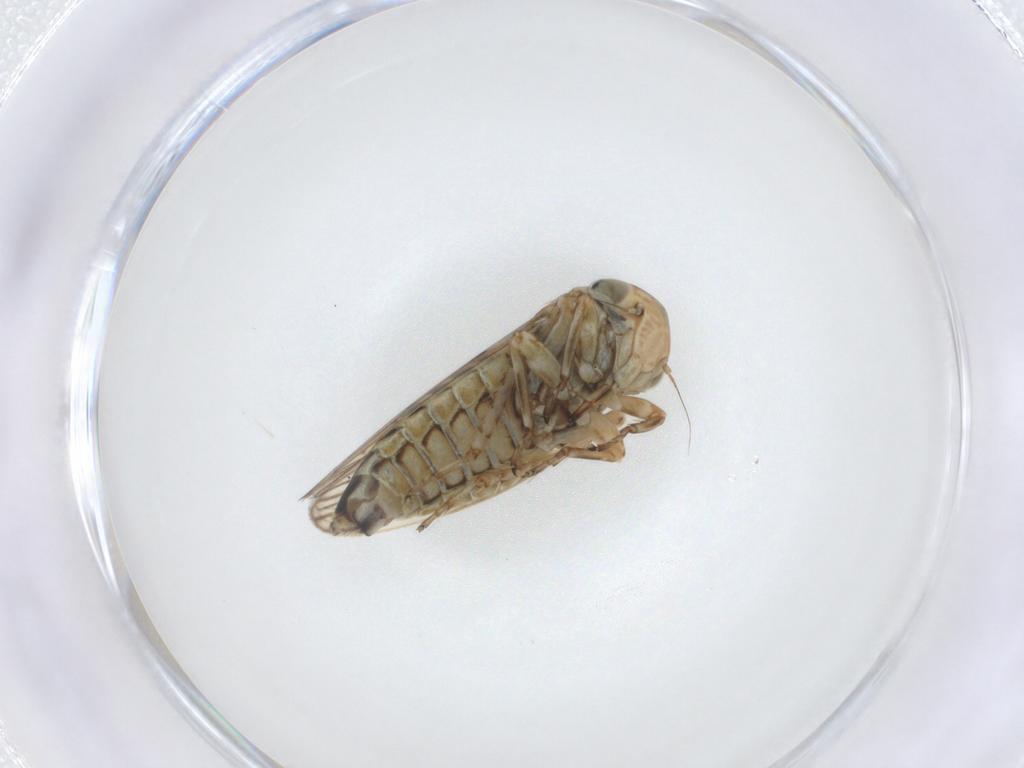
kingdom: Animalia
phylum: Arthropoda
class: Insecta
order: Hemiptera
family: Cicadellidae
